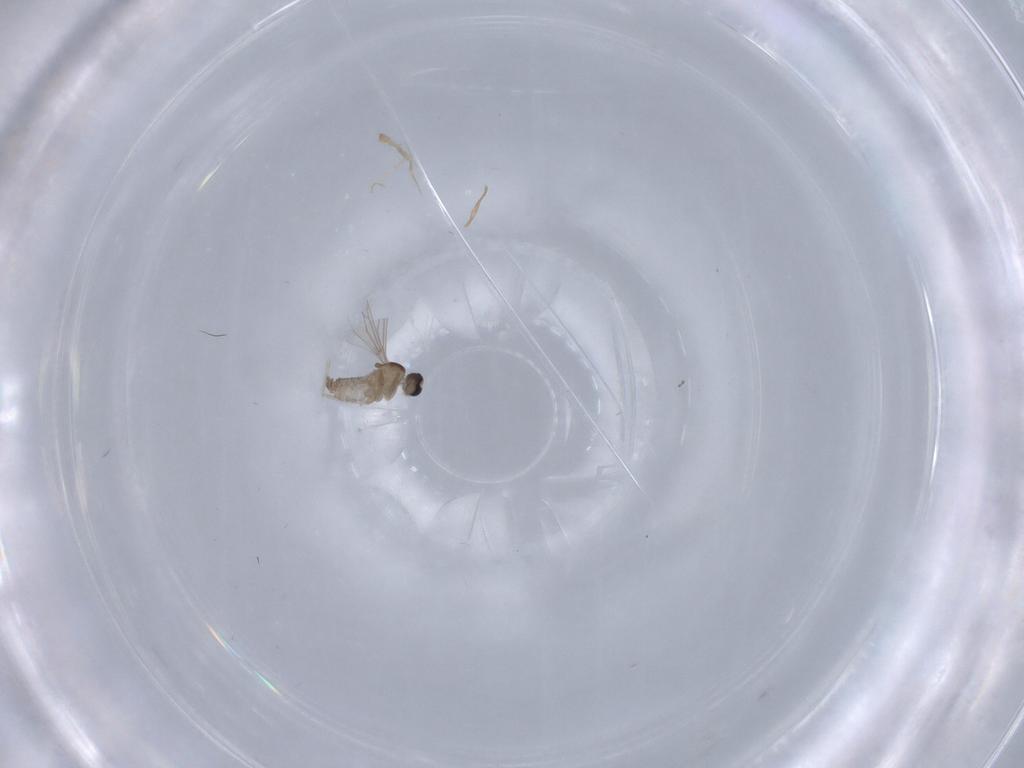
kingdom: Animalia
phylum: Arthropoda
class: Insecta
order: Diptera
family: Cecidomyiidae
